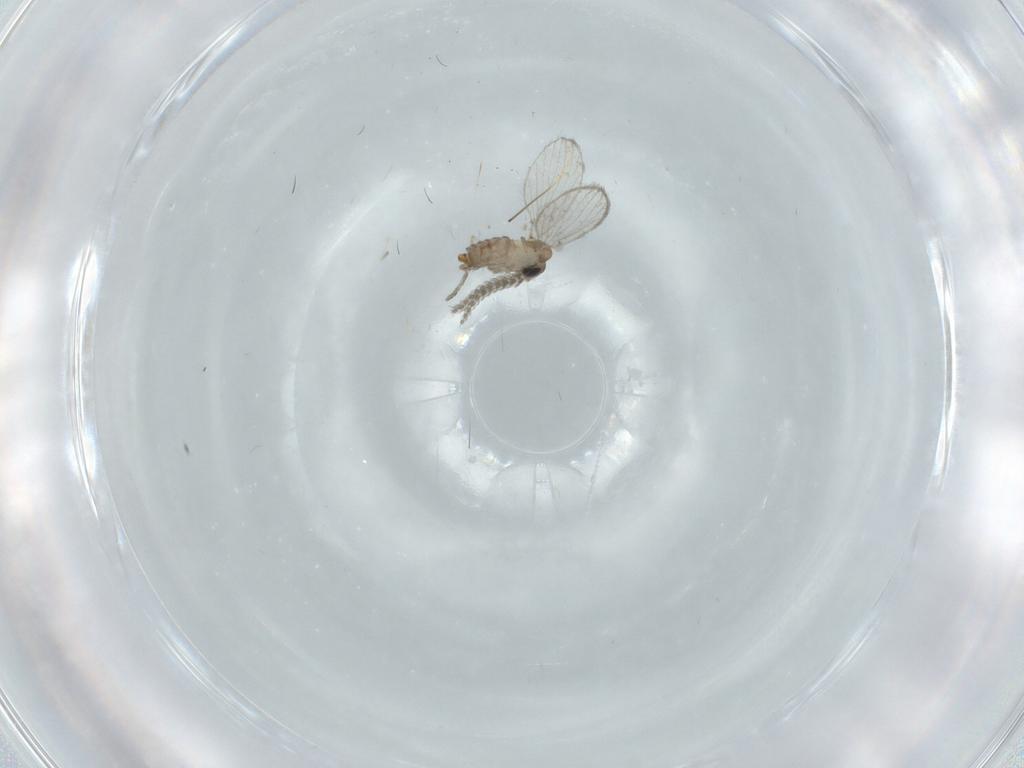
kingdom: Animalia
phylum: Arthropoda
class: Insecta
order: Diptera
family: Psychodidae
